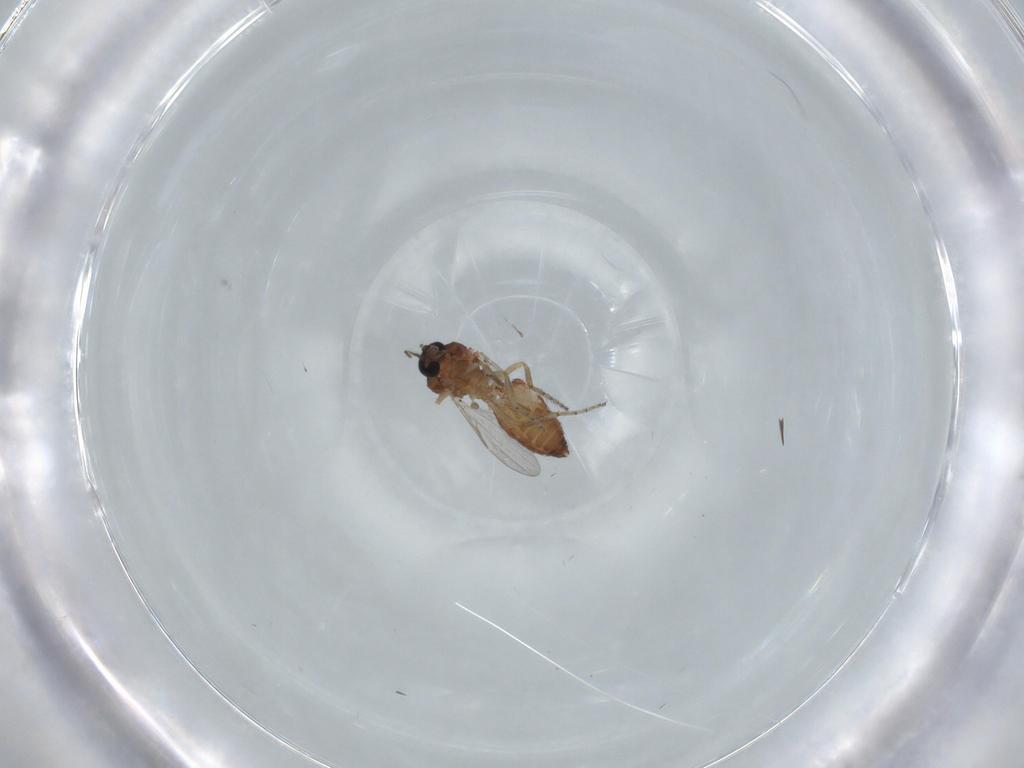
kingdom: Animalia
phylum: Arthropoda
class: Insecta
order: Diptera
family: Ceratopogonidae
